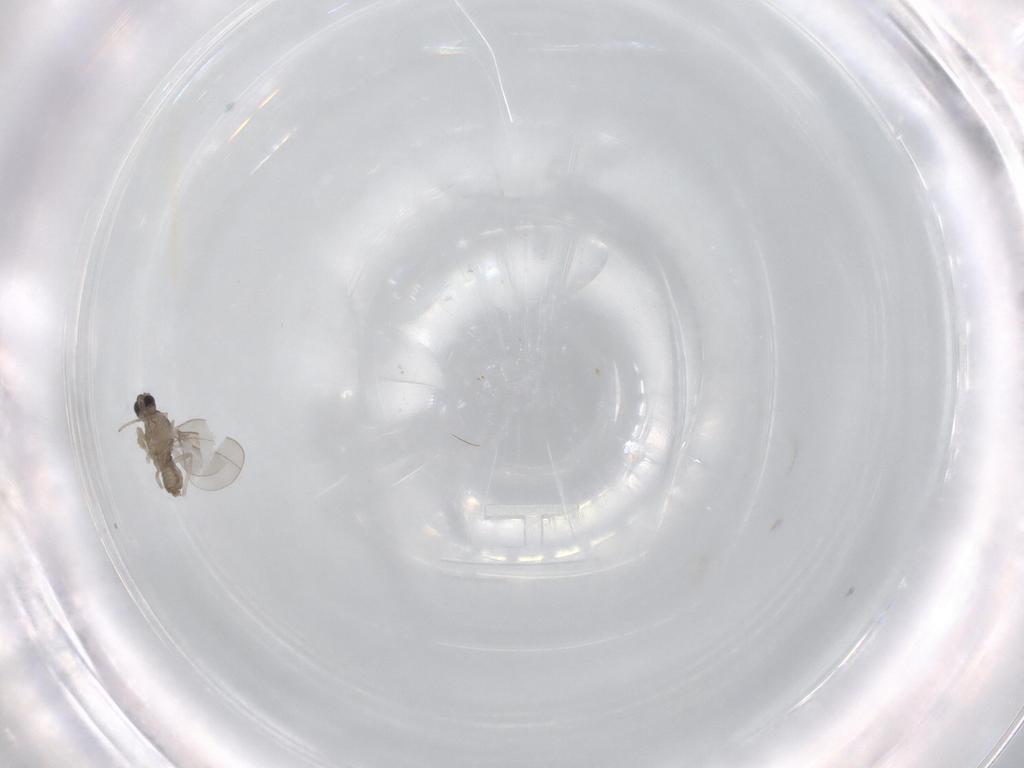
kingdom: Animalia
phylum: Arthropoda
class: Insecta
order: Diptera
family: Cecidomyiidae
